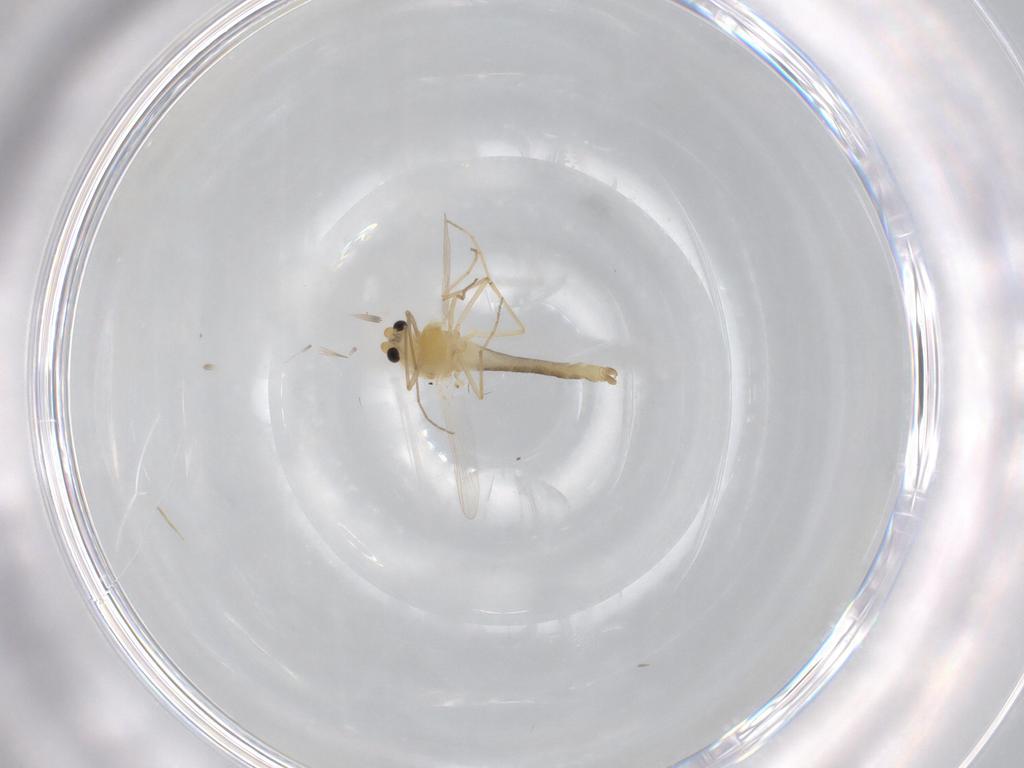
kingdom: Animalia
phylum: Arthropoda
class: Insecta
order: Diptera
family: Chironomidae
